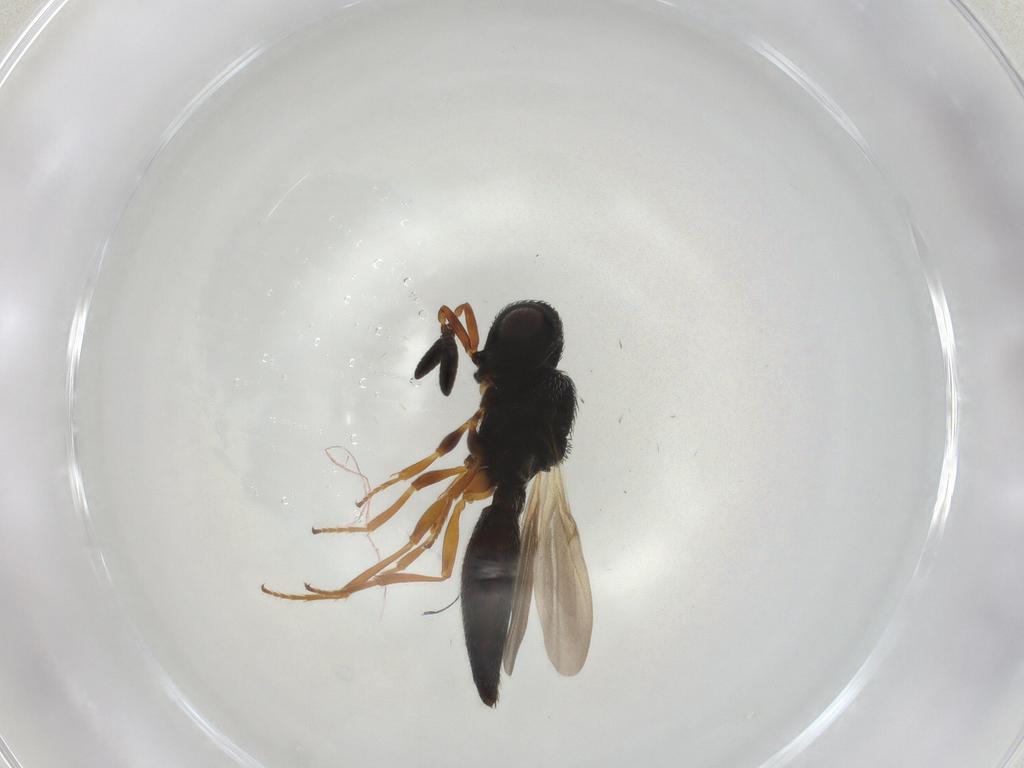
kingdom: Animalia
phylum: Arthropoda
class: Insecta
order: Hymenoptera
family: Scelionidae
